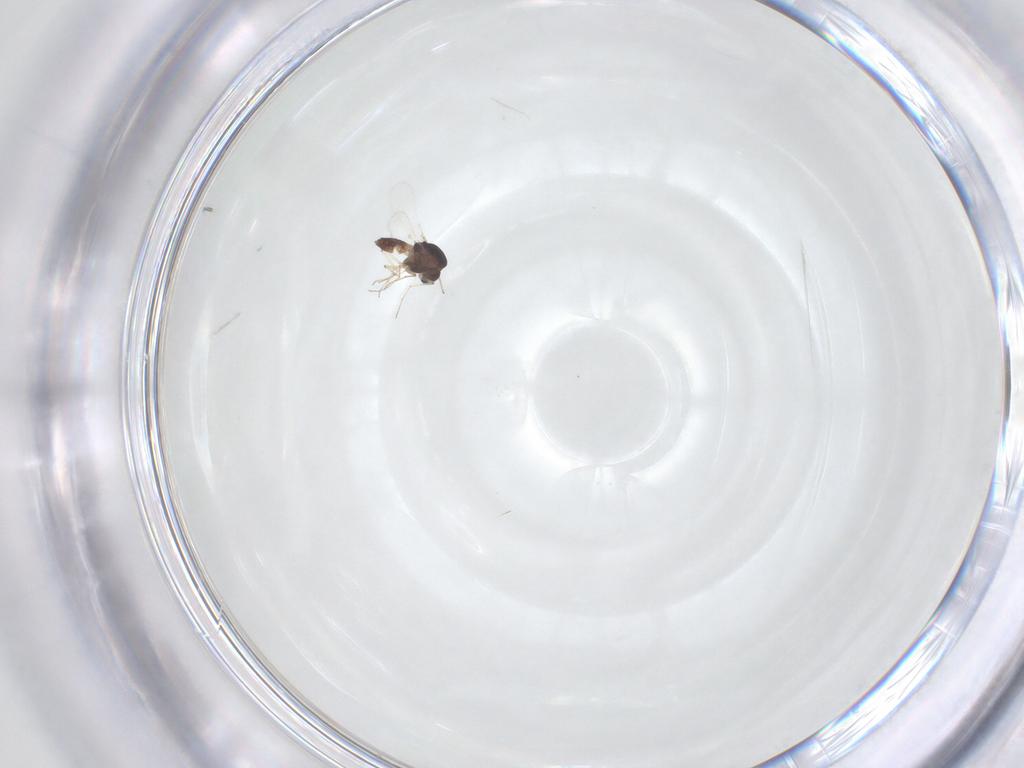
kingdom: Animalia
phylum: Arthropoda
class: Insecta
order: Diptera
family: Chironomidae
